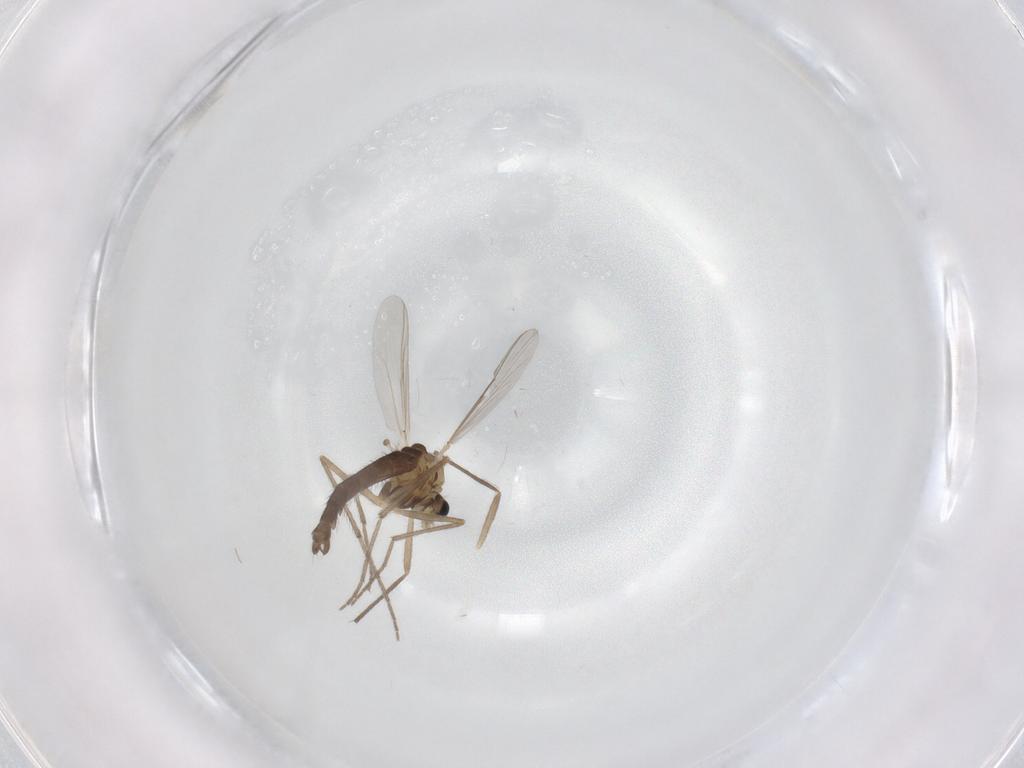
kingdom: Animalia
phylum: Arthropoda
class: Insecta
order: Diptera
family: Chironomidae
